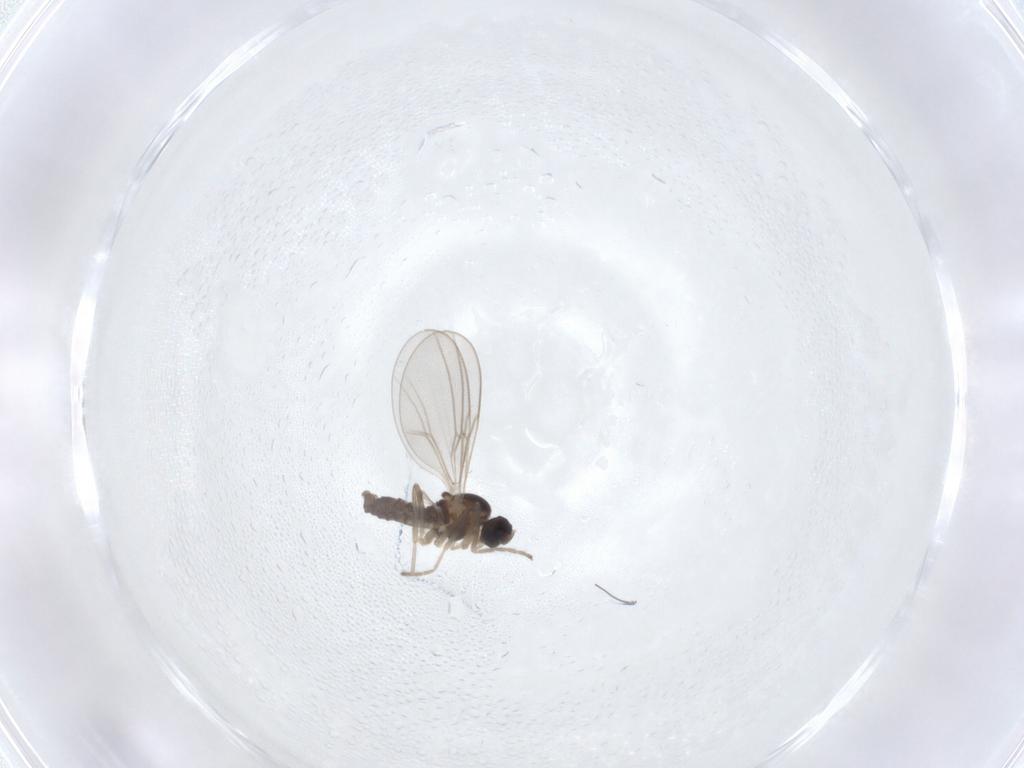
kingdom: Animalia
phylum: Arthropoda
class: Insecta
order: Diptera
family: Cecidomyiidae
